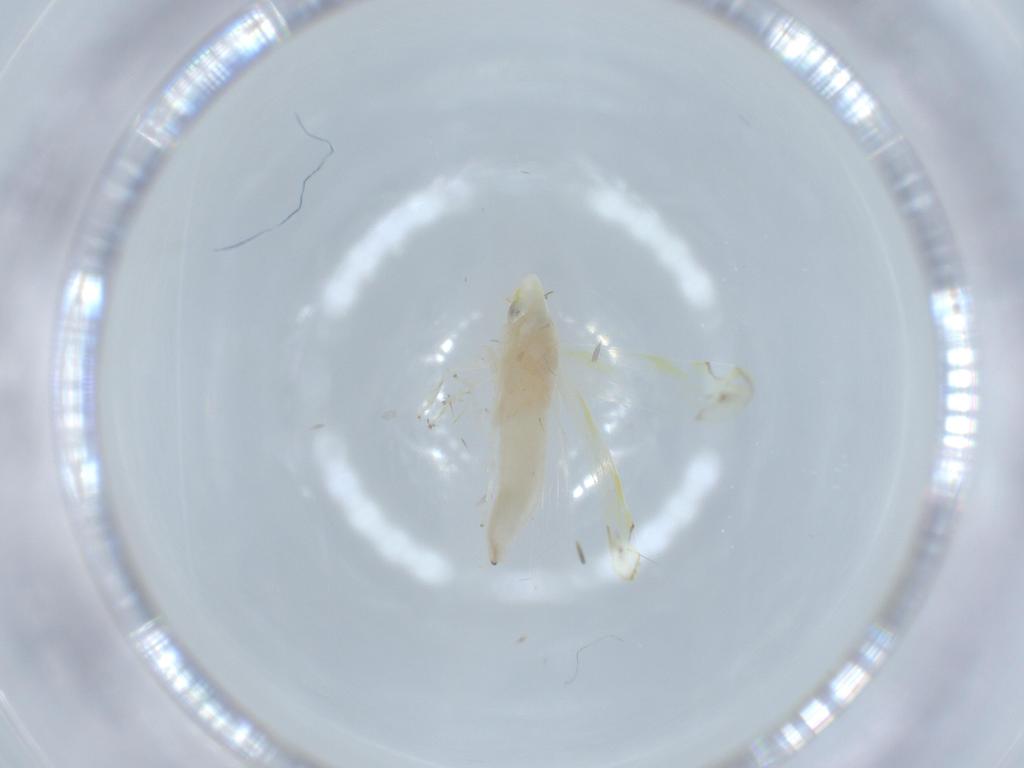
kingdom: Animalia
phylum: Arthropoda
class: Insecta
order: Hemiptera
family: Cicadellidae
